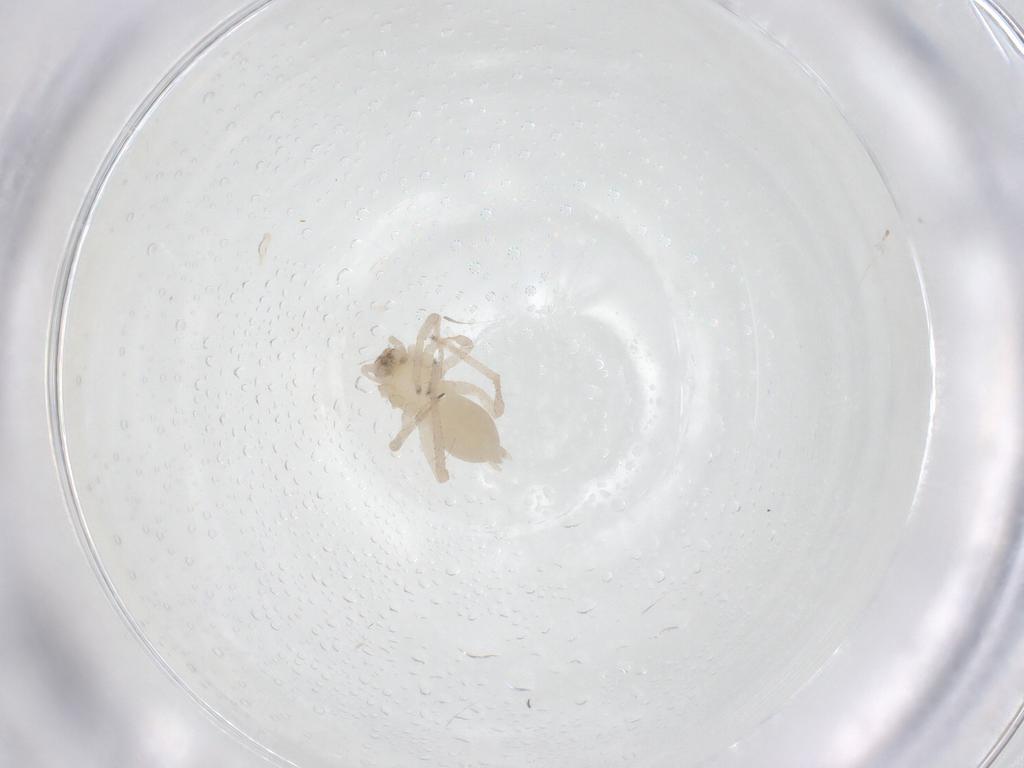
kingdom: Animalia
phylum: Arthropoda
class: Arachnida
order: Araneae
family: Anyphaenidae
